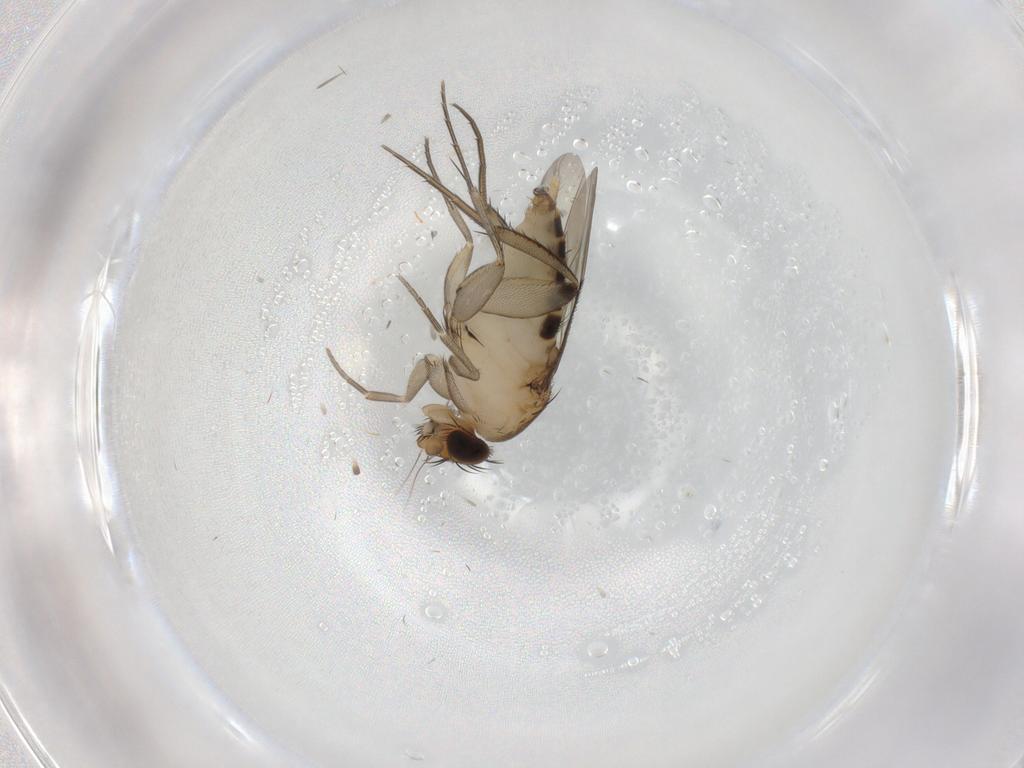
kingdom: Animalia
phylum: Arthropoda
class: Insecta
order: Diptera
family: Phoridae
